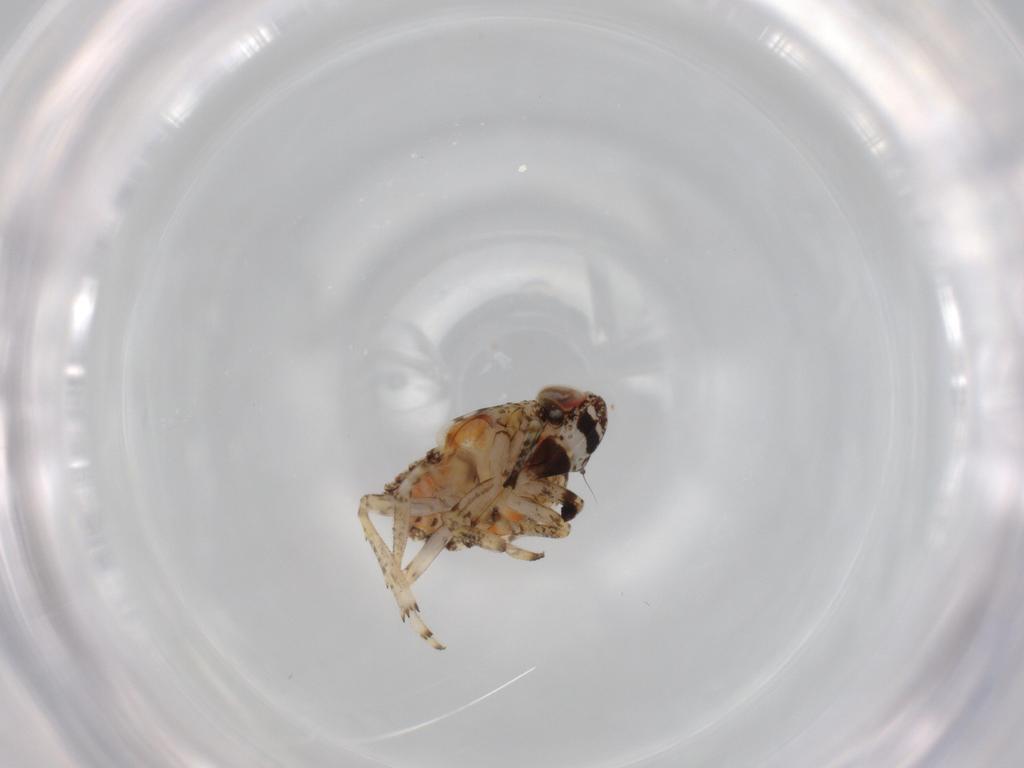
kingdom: Animalia
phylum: Arthropoda
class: Insecta
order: Hemiptera
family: Issidae
